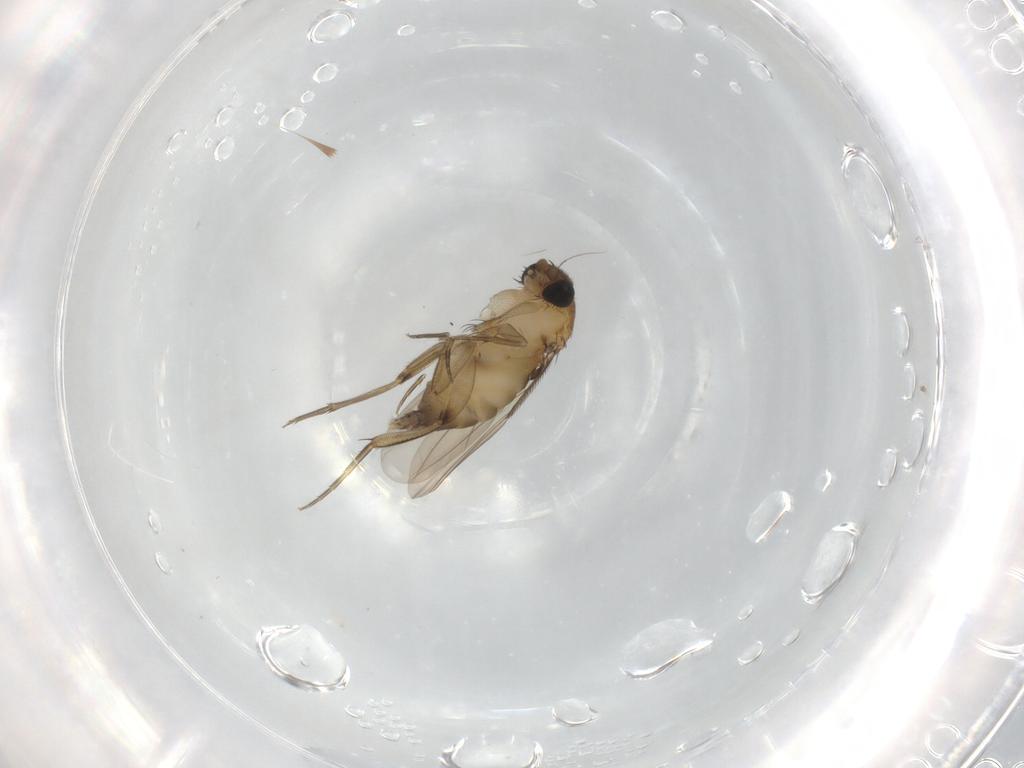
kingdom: Animalia
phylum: Arthropoda
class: Insecta
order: Diptera
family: Phoridae
